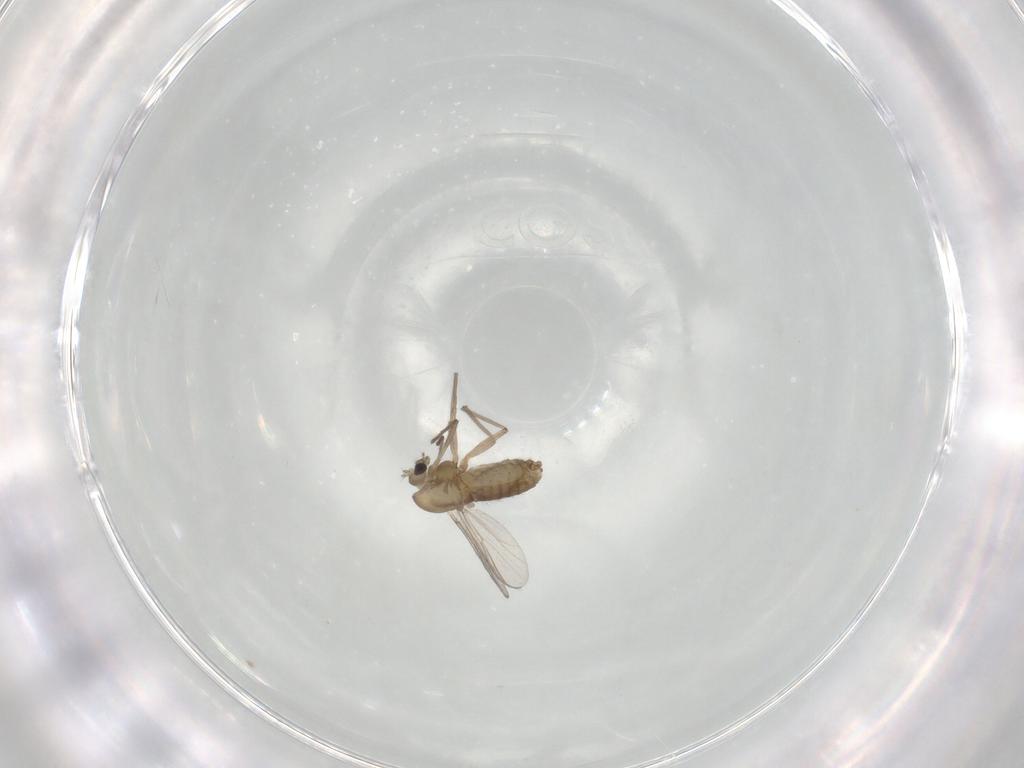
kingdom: Animalia
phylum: Arthropoda
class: Insecta
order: Diptera
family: Chironomidae
